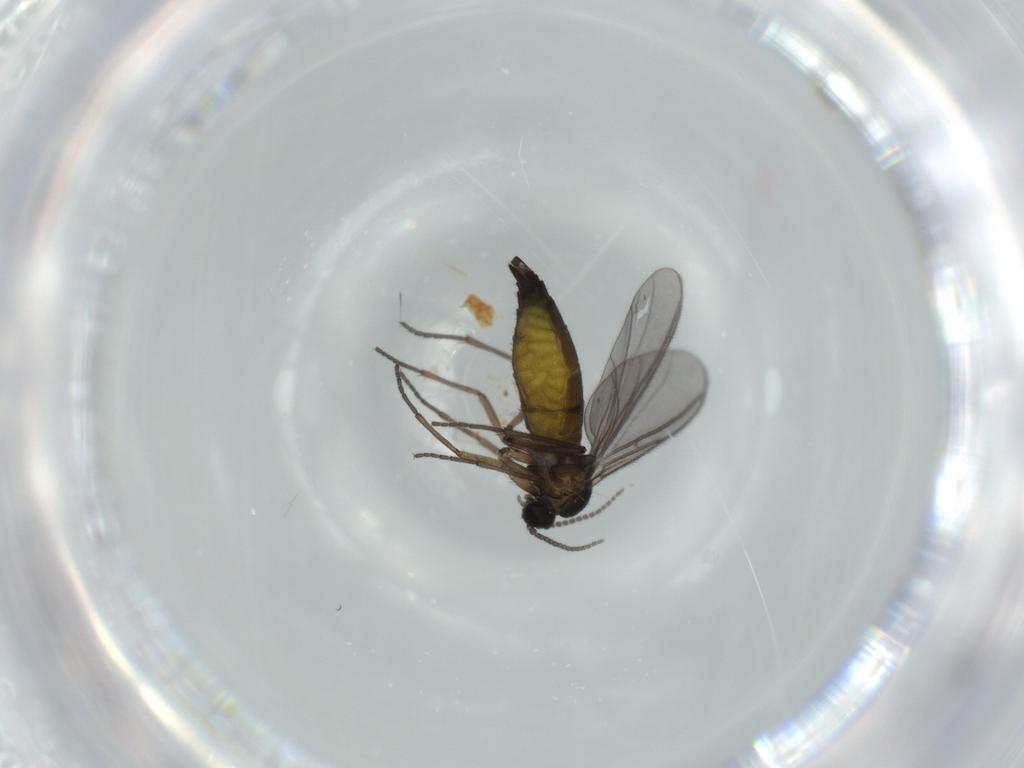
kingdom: Animalia
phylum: Arthropoda
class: Insecta
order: Diptera
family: Sciaridae
